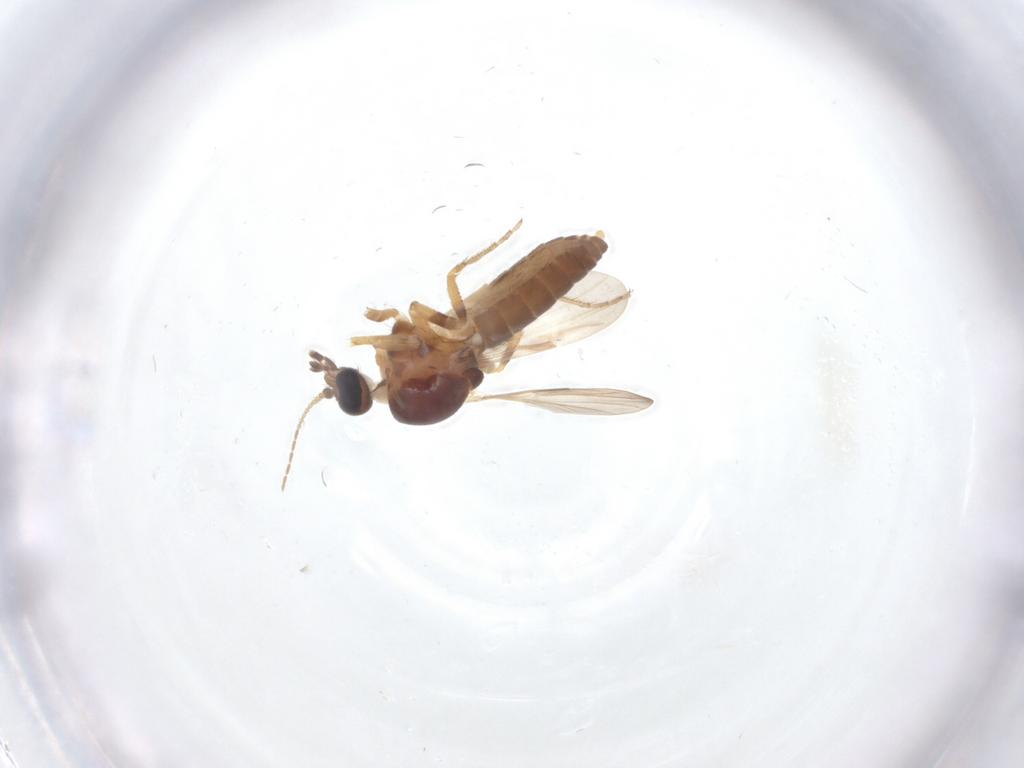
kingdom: Animalia
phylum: Arthropoda
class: Insecta
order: Diptera
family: Ceratopogonidae
